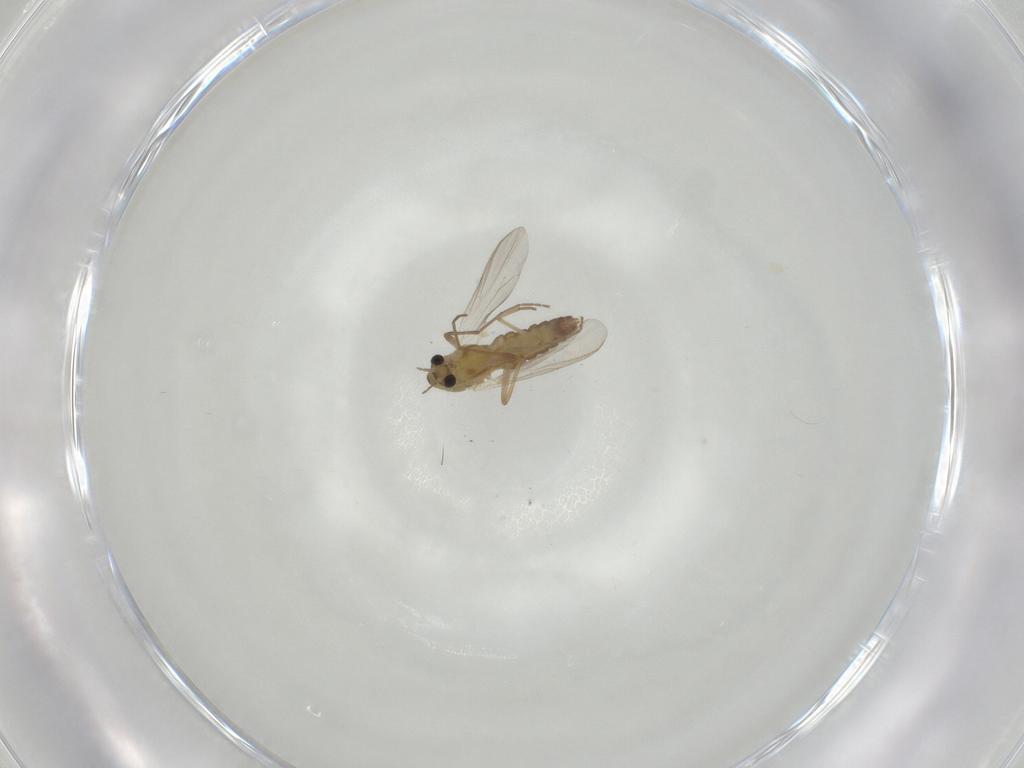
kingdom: Animalia
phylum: Arthropoda
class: Insecta
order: Diptera
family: Chironomidae
